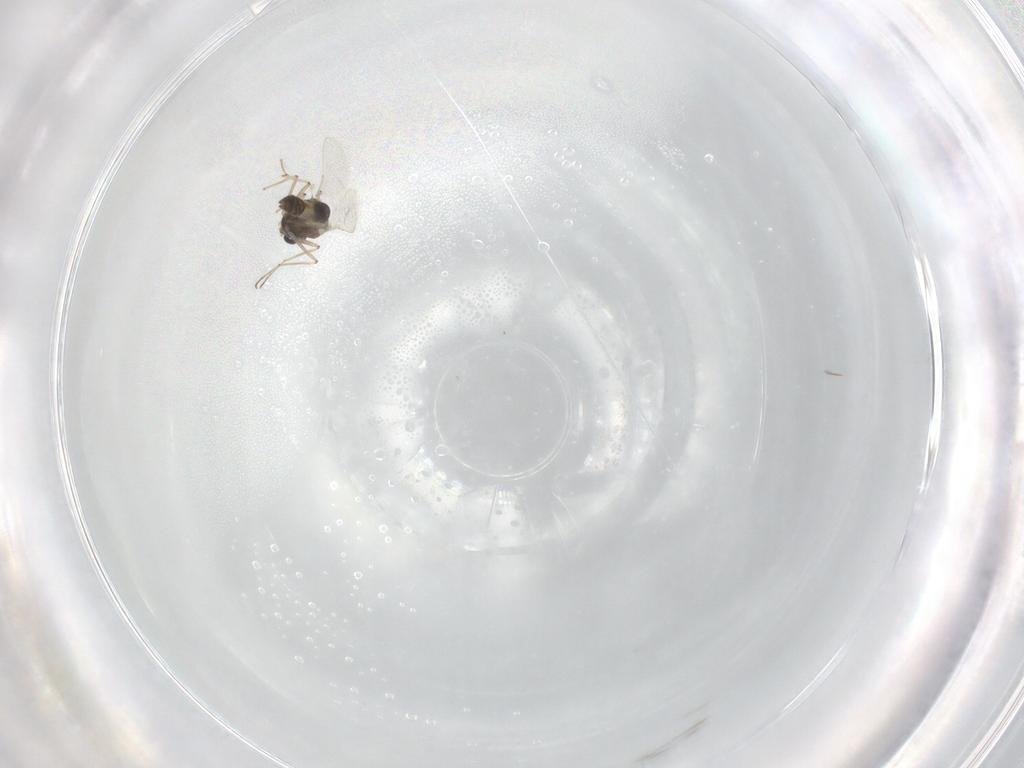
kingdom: Animalia
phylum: Arthropoda
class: Insecta
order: Diptera
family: Chironomidae
